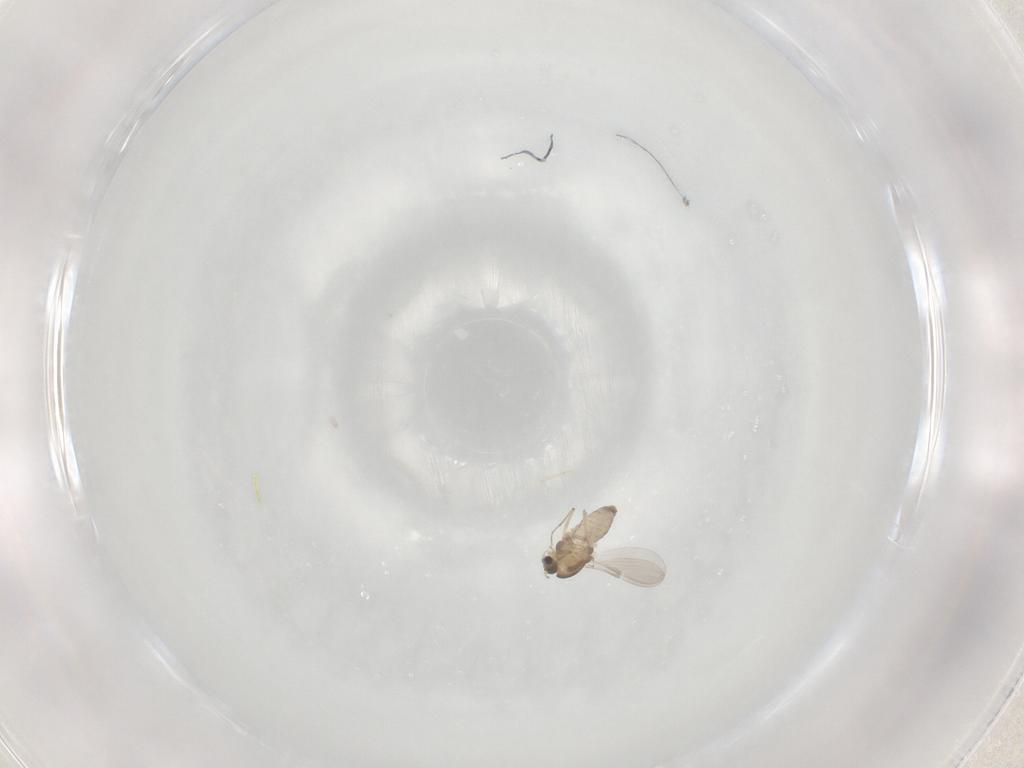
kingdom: Animalia
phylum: Arthropoda
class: Insecta
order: Diptera
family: Chironomidae
